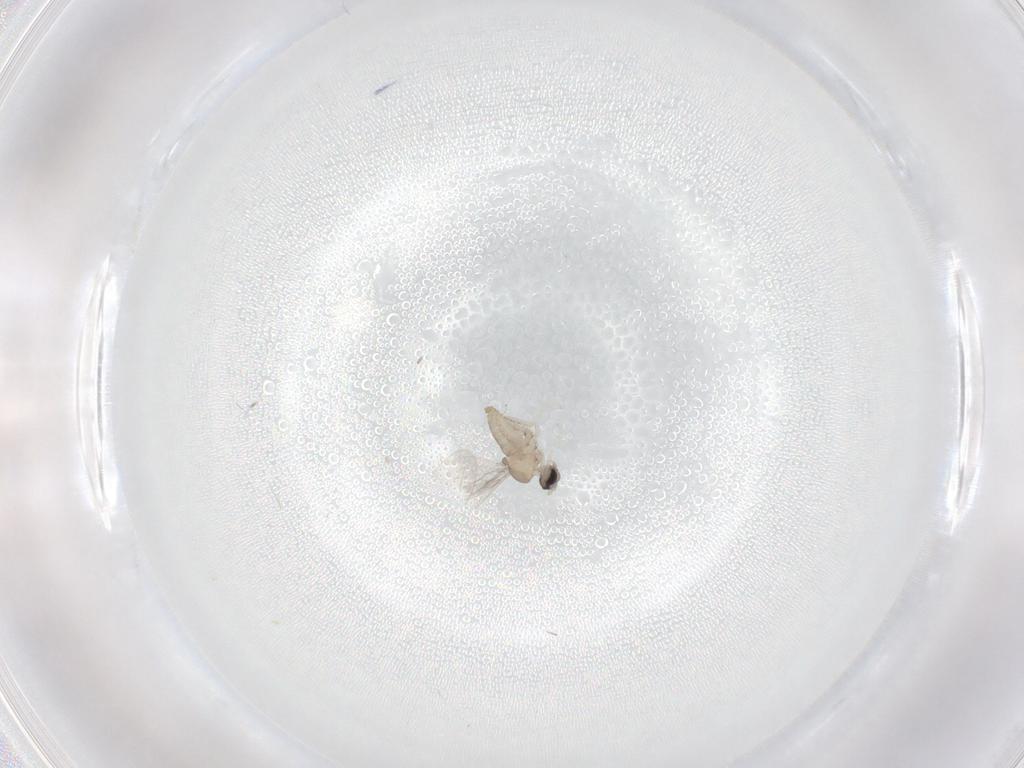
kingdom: Animalia
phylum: Arthropoda
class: Insecta
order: Diptera
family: Cecidomyiidae
